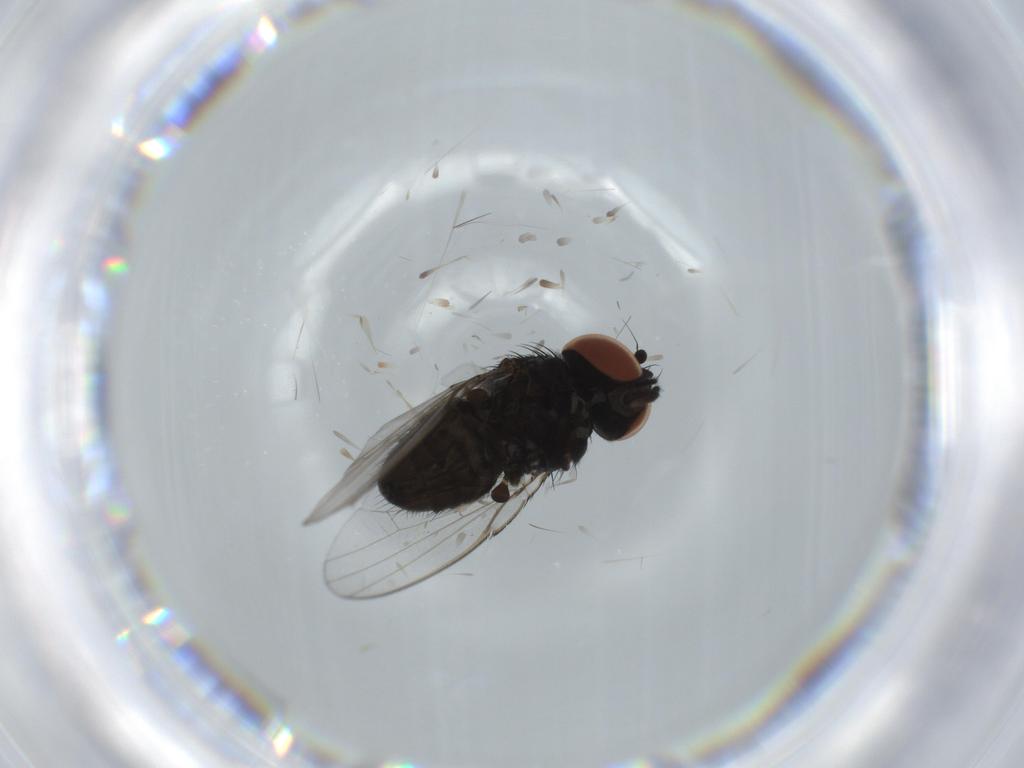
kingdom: Animalia
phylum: Arthropoda
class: Insecta
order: Diptera
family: Milichiidae
